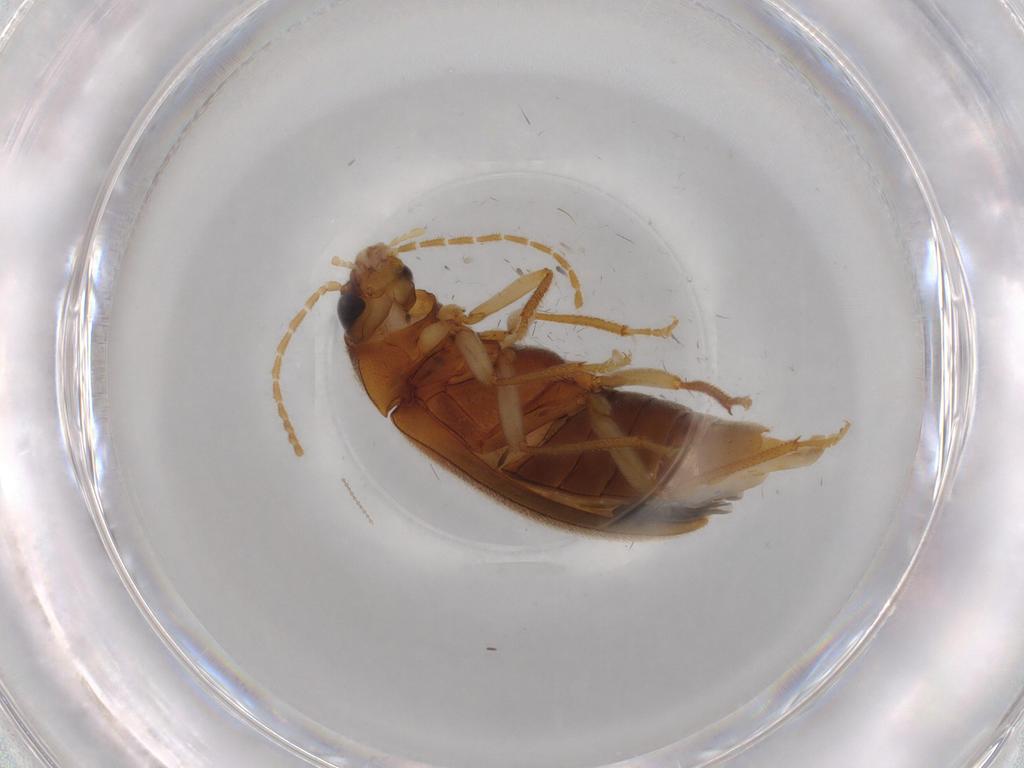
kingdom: Animalia
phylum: Arthropoda
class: Insecta
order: Coleoptera
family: Ptilodactylidae
